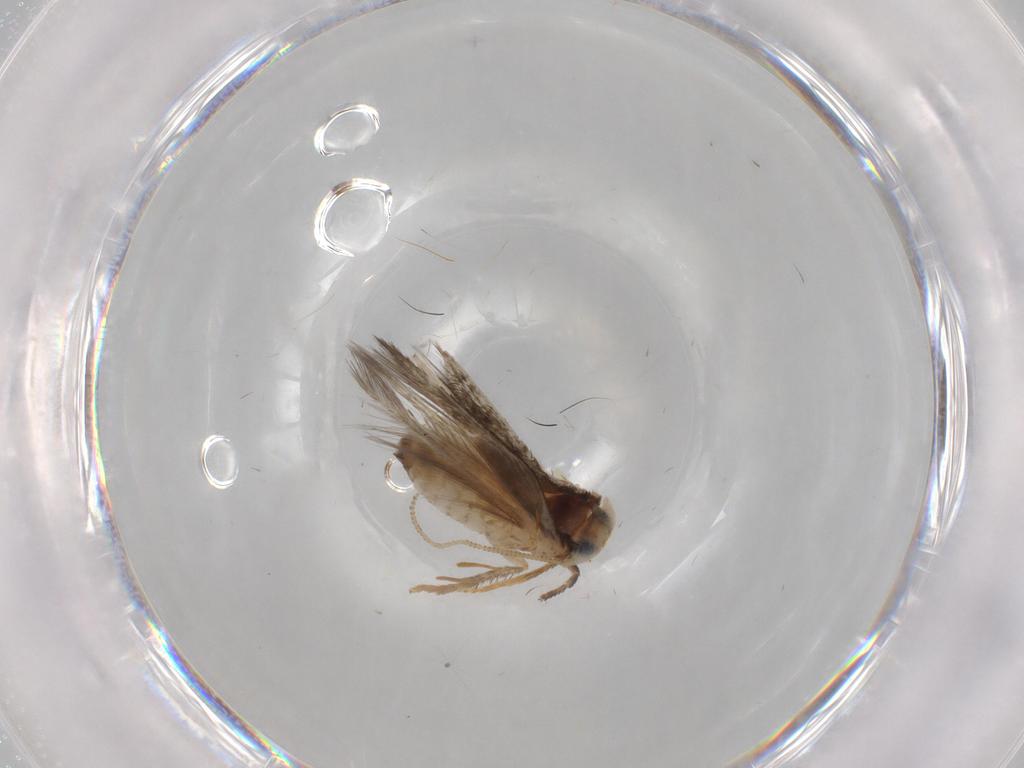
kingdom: Animalia
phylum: Arthropoda
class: Insecta
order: Lepidoptera
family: Nepticulidae
